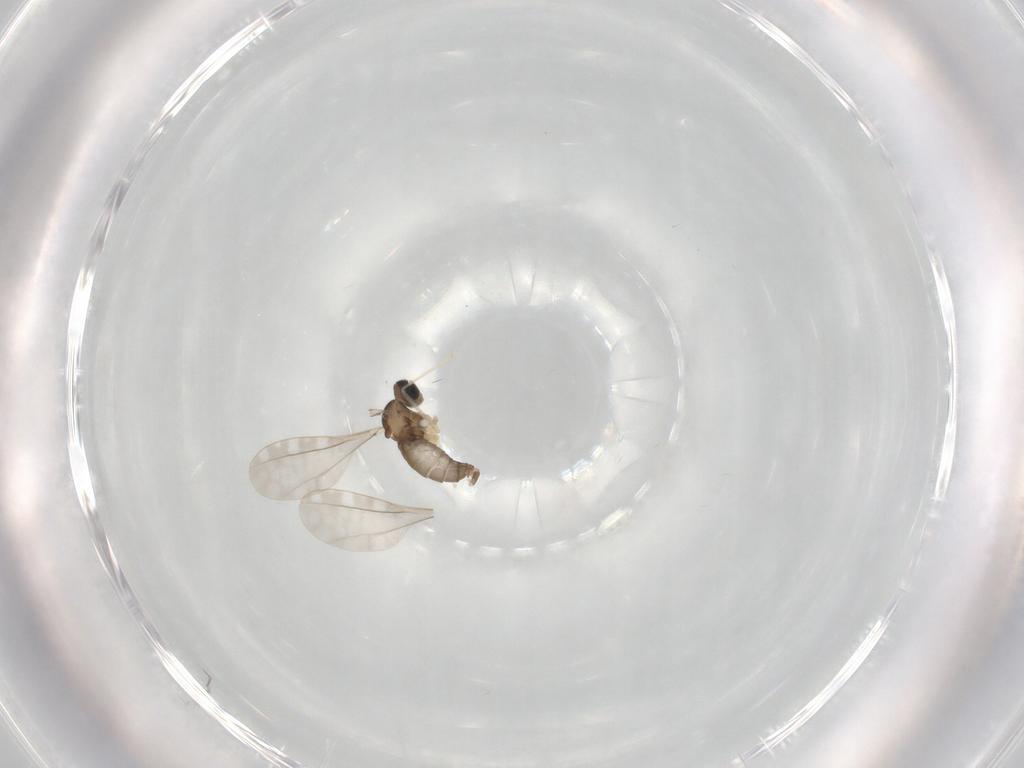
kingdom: Animalia
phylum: Arthropoda
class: Insecta
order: Diptera
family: Cecidomyiidae
